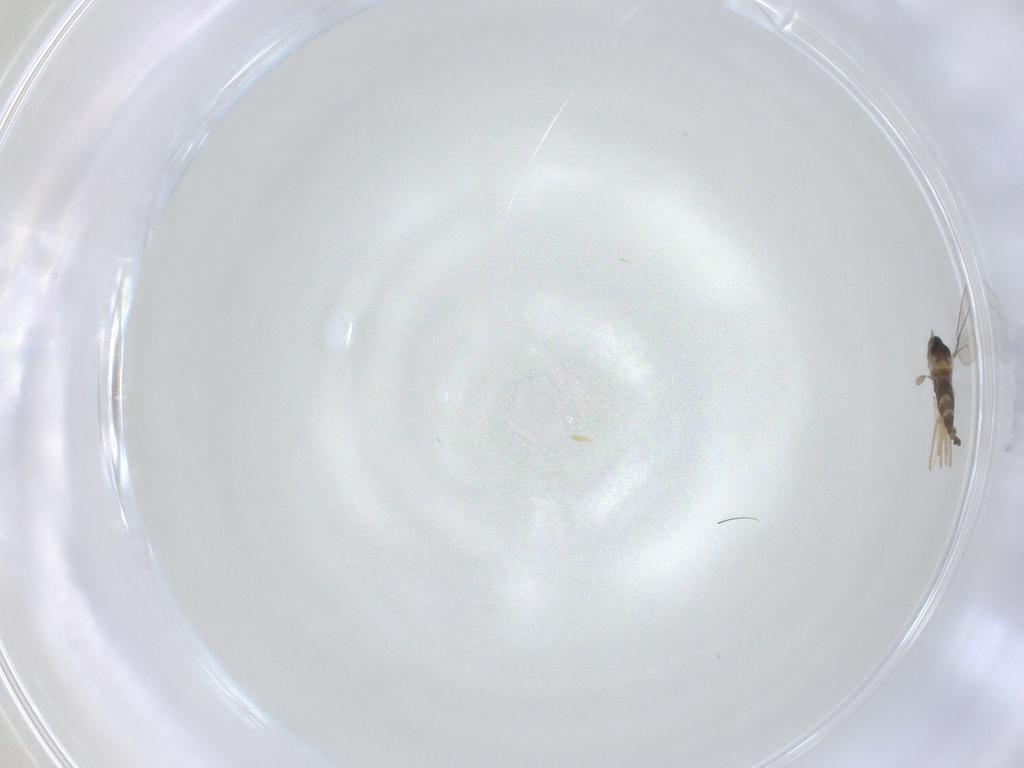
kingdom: Animalia
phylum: Arthropoda
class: Insecta
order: Diptera
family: Cecidomyiidae
